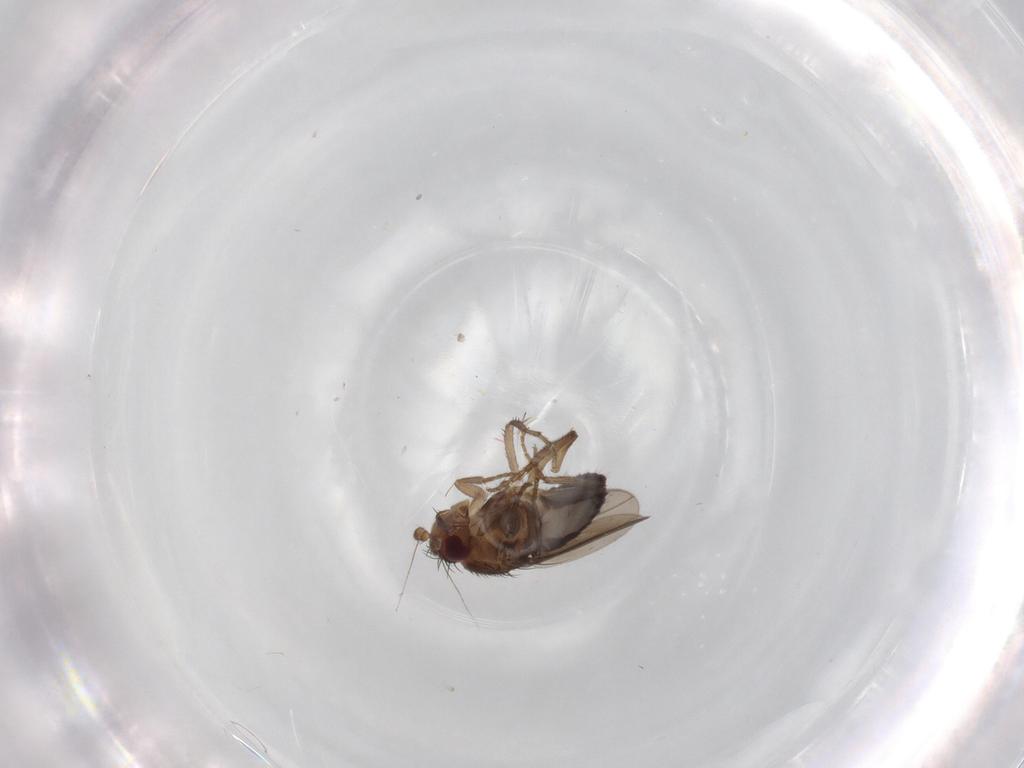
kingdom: Animalia
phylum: Arthropoda
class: Insecta
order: Diptera
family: Sphaeroceridae
